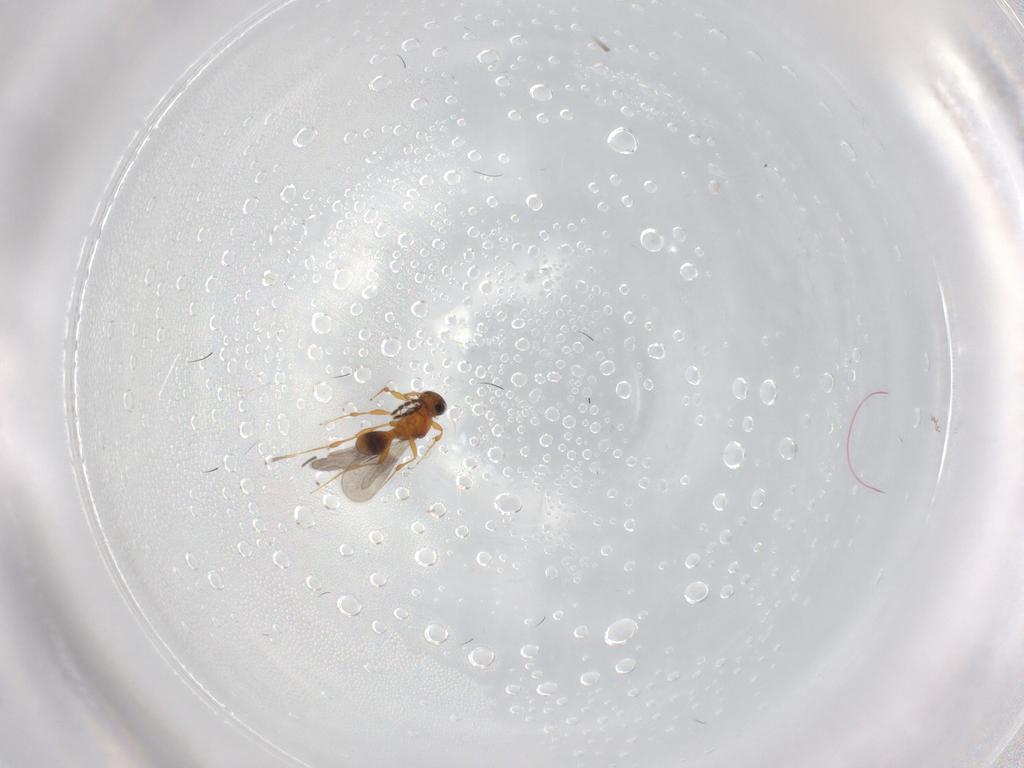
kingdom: Animalia
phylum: Arthropoda
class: Insecta
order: Hymenoptera
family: Platygastridae
